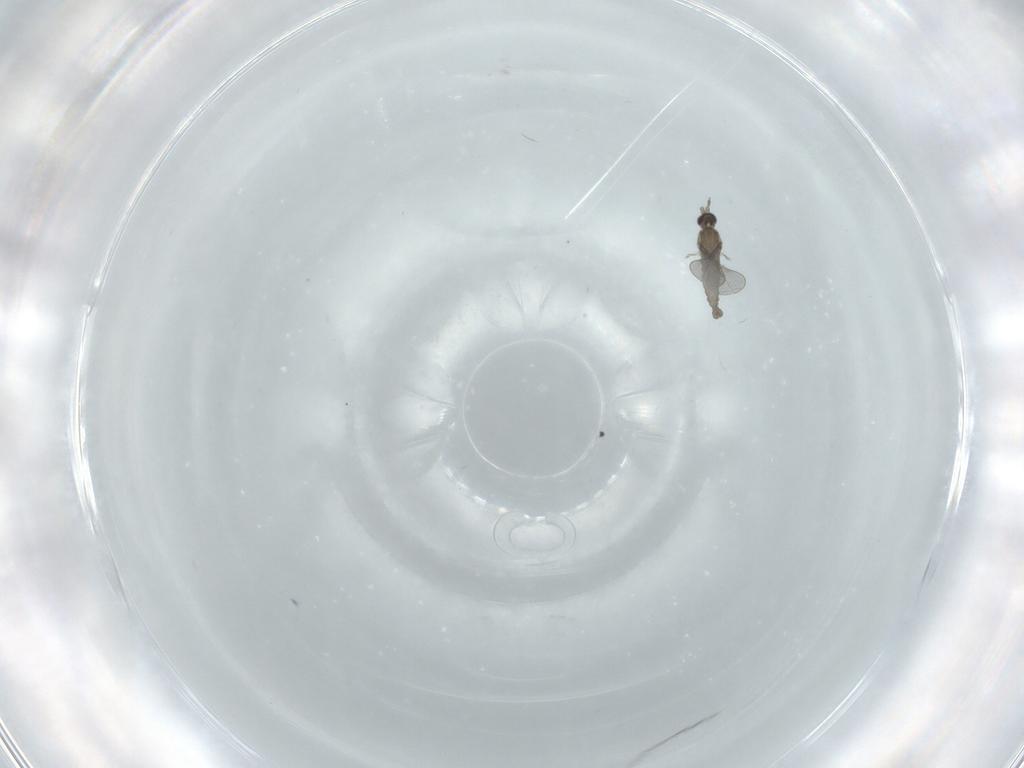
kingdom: Animalia
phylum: Arthropoda
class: Insecta
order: Diptera
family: Cecidomyiidae
